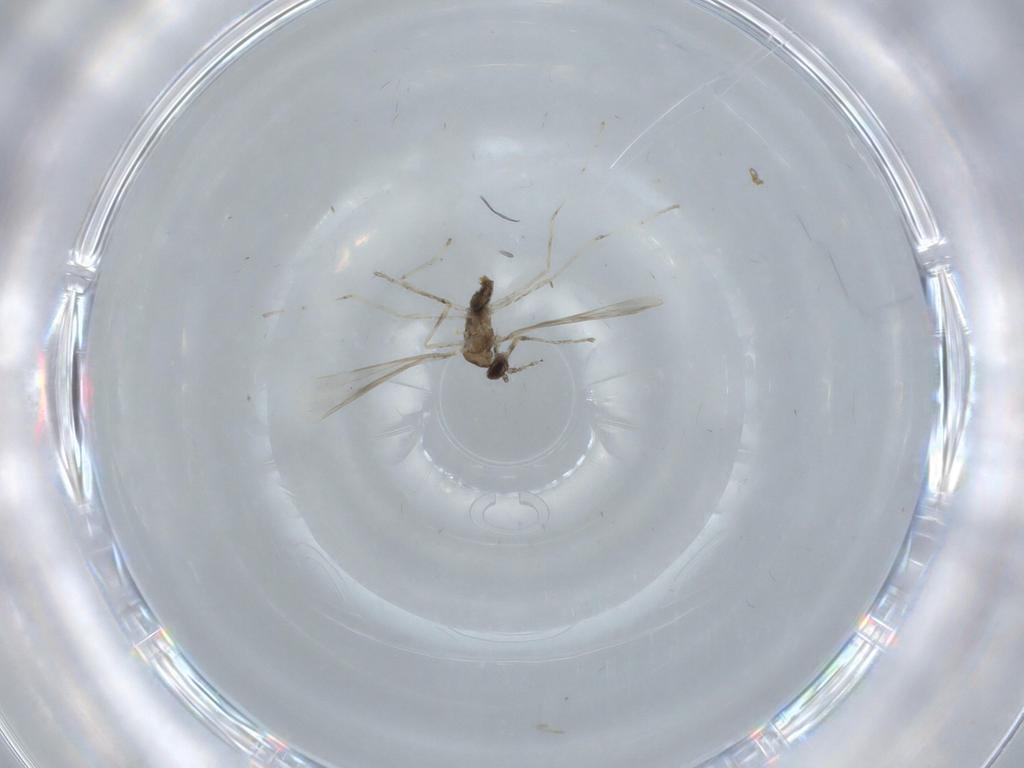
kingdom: Animalia
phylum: Arthropoda
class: Insecta
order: Diptera
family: Cecidomyiidae
